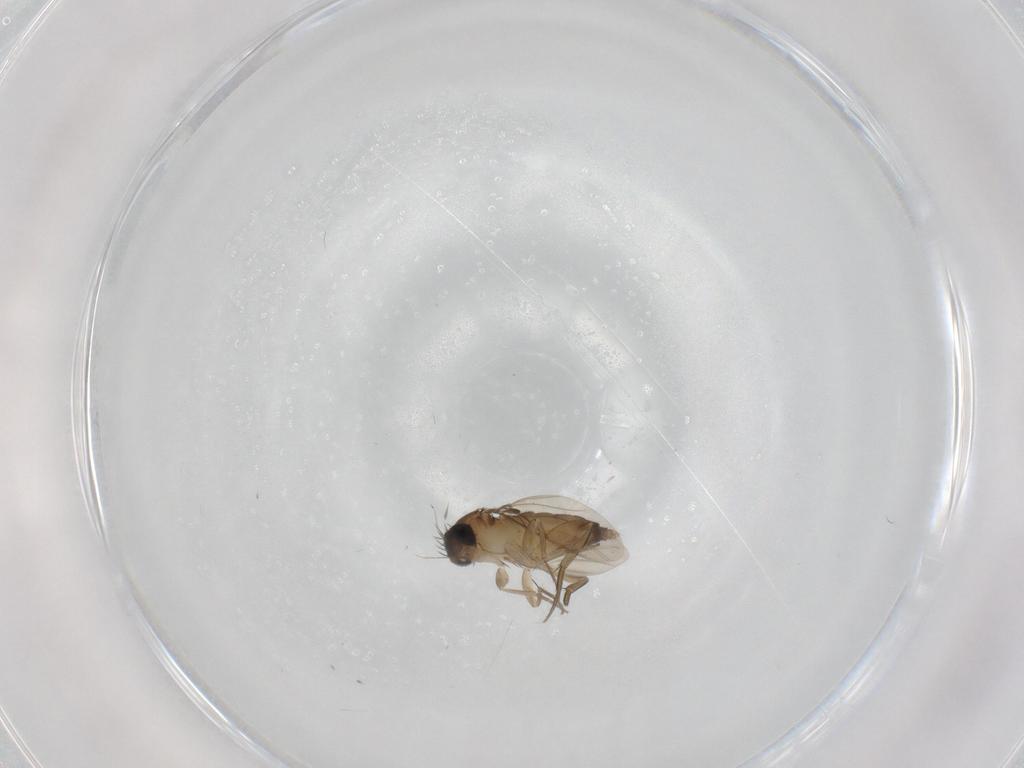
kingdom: Animalia
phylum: Arthropoda
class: Insecta
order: Diptera
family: Phoridae
